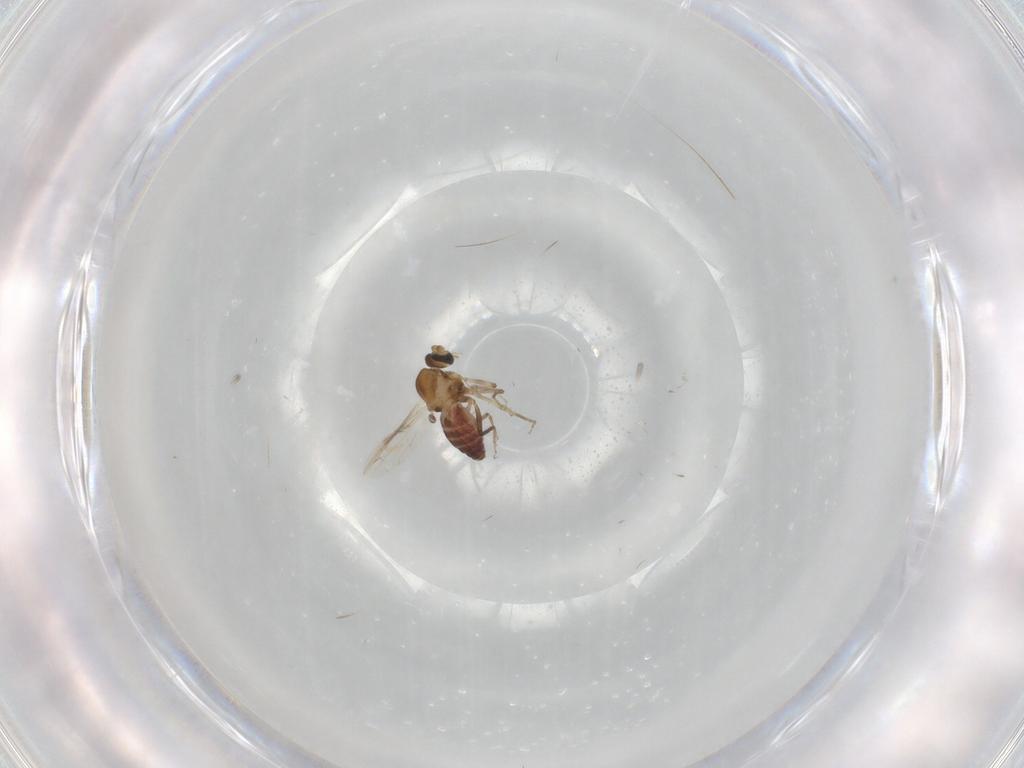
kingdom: Animalia
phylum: Arthropoda
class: Insecta
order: Diptera
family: Ceratopogonidae
